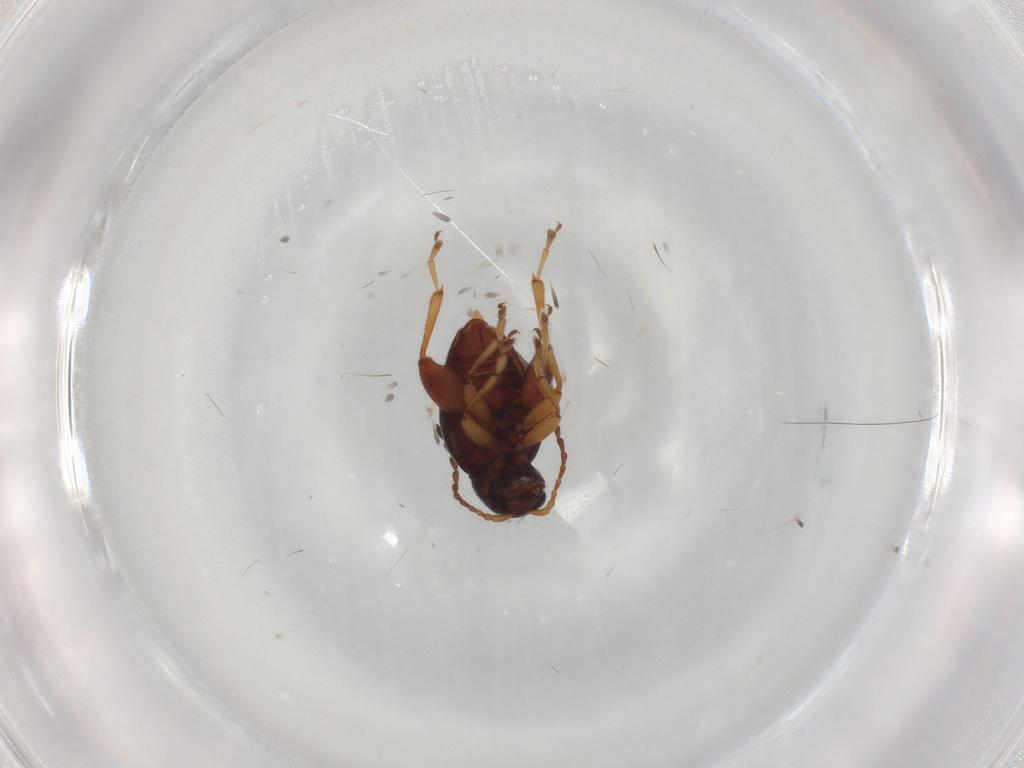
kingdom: Animalia
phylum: Arthropoda
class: Insecta
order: Coleoptera
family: Chrysomelidae
